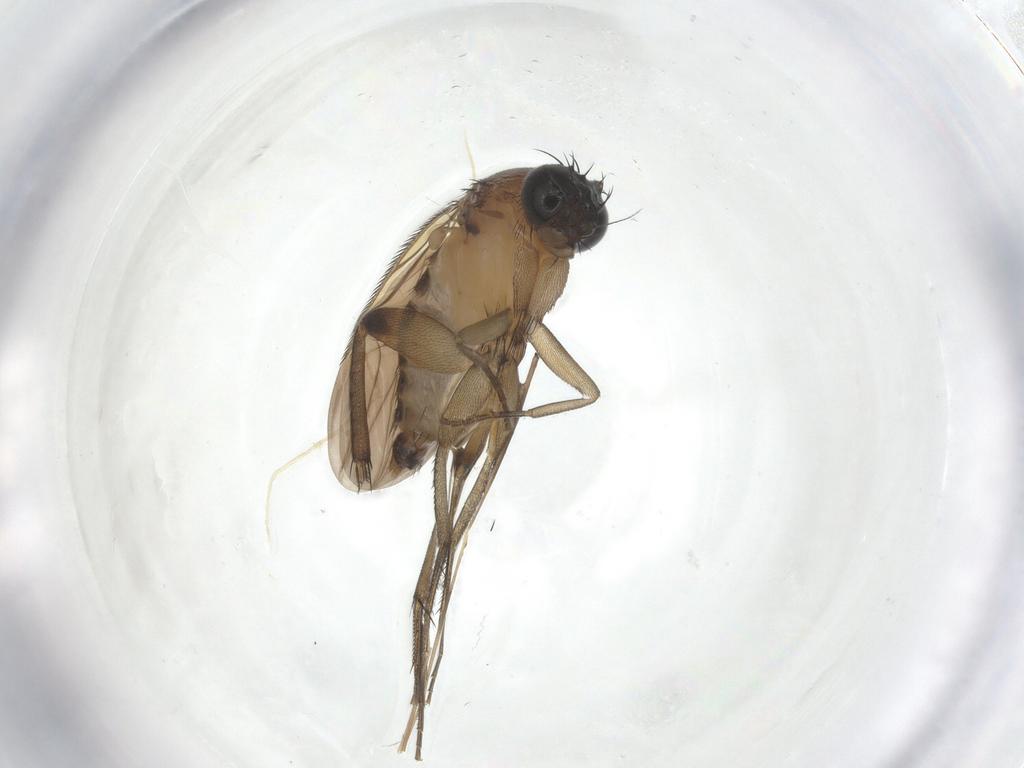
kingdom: Animalia
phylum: Arthropoda
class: Insecta
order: Diptera
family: Phoridae
